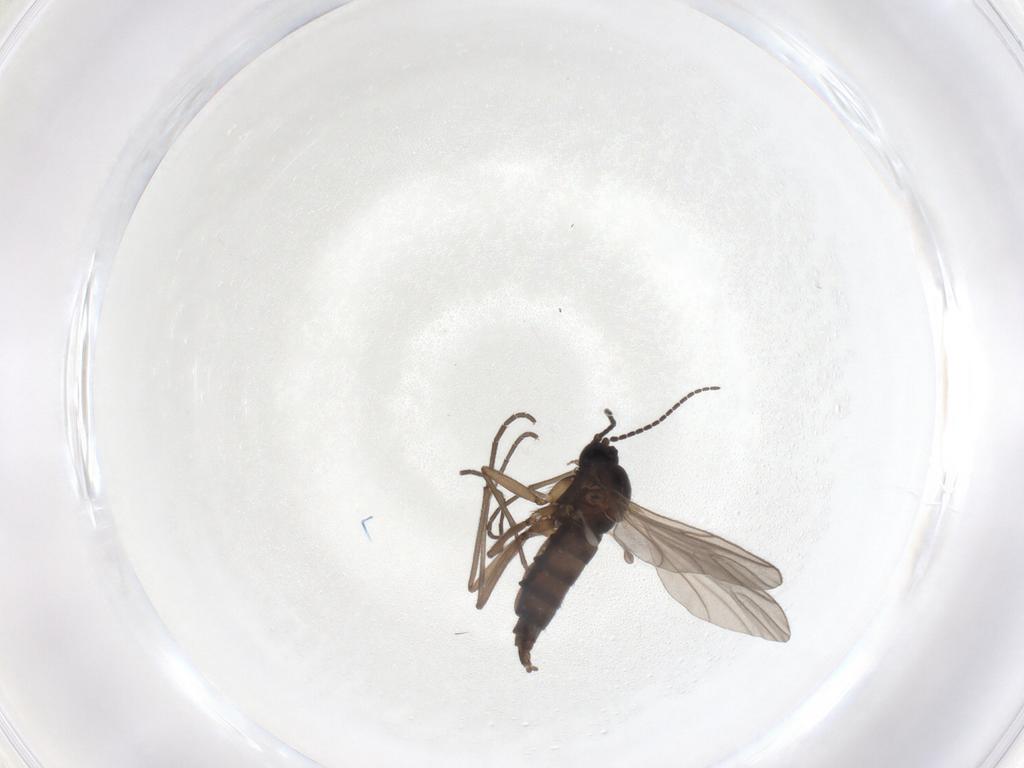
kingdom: Animalia
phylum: Arthropoda
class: Insecta
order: Diptera
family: Sciaridae
